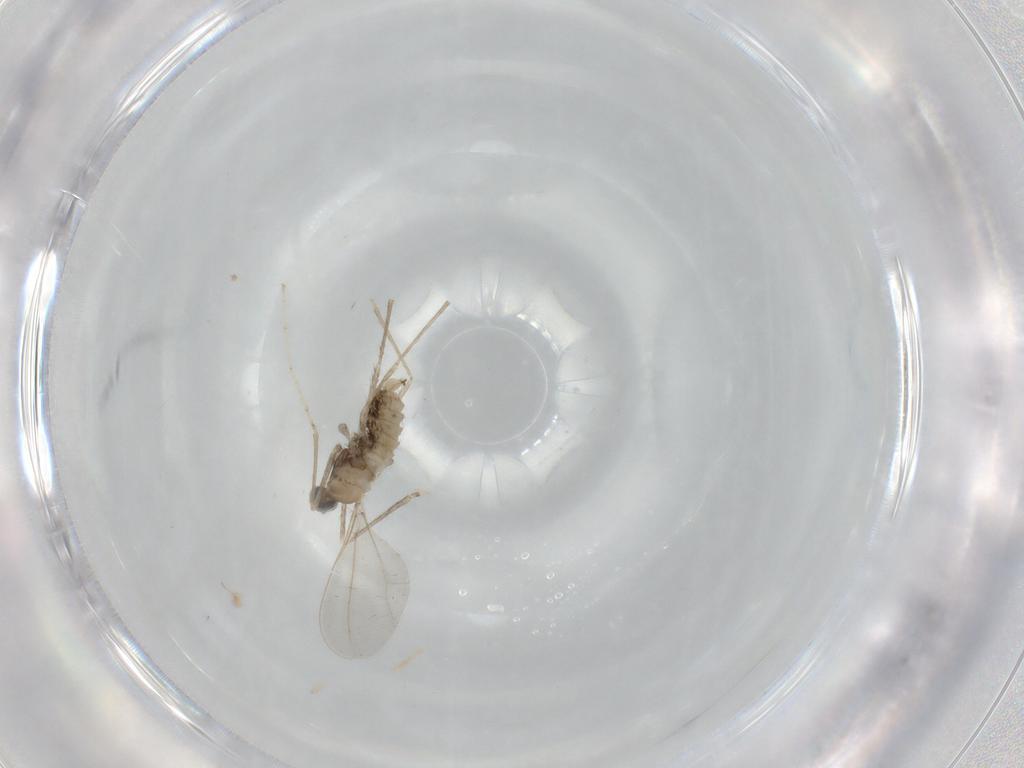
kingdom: Animalia
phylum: Arthropoda
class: Insecta
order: Diptera
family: Cecidomyiidae
